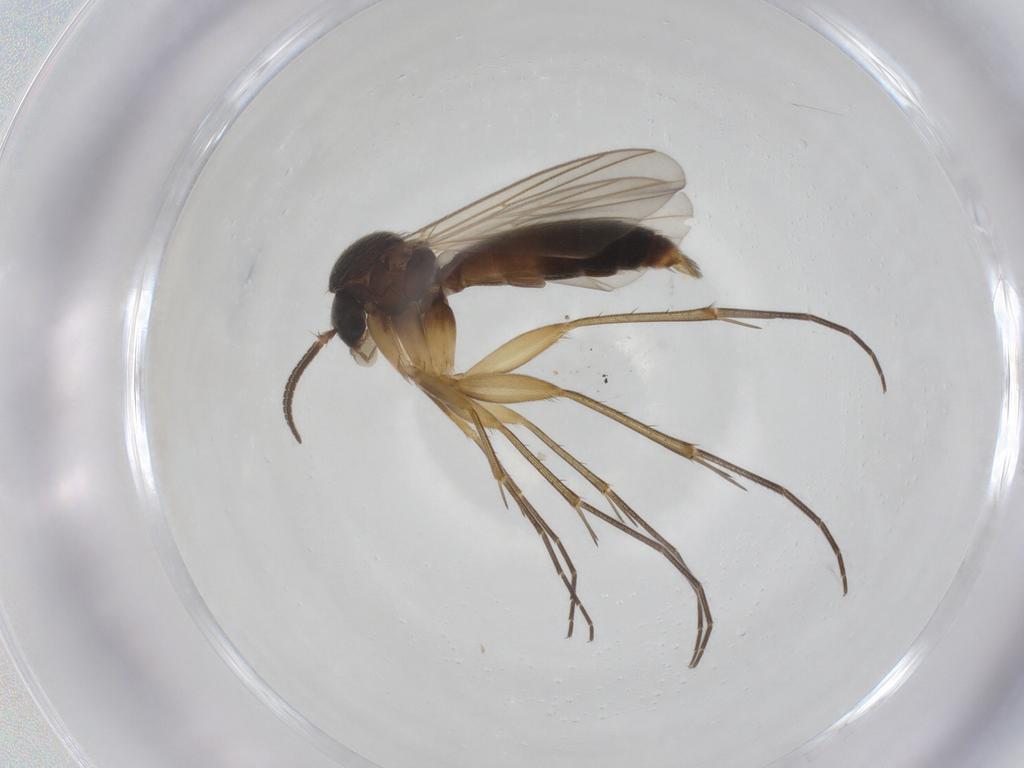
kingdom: Animalia
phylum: Arthropoda
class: Insecta
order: Diptera
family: Mycetophilidae
